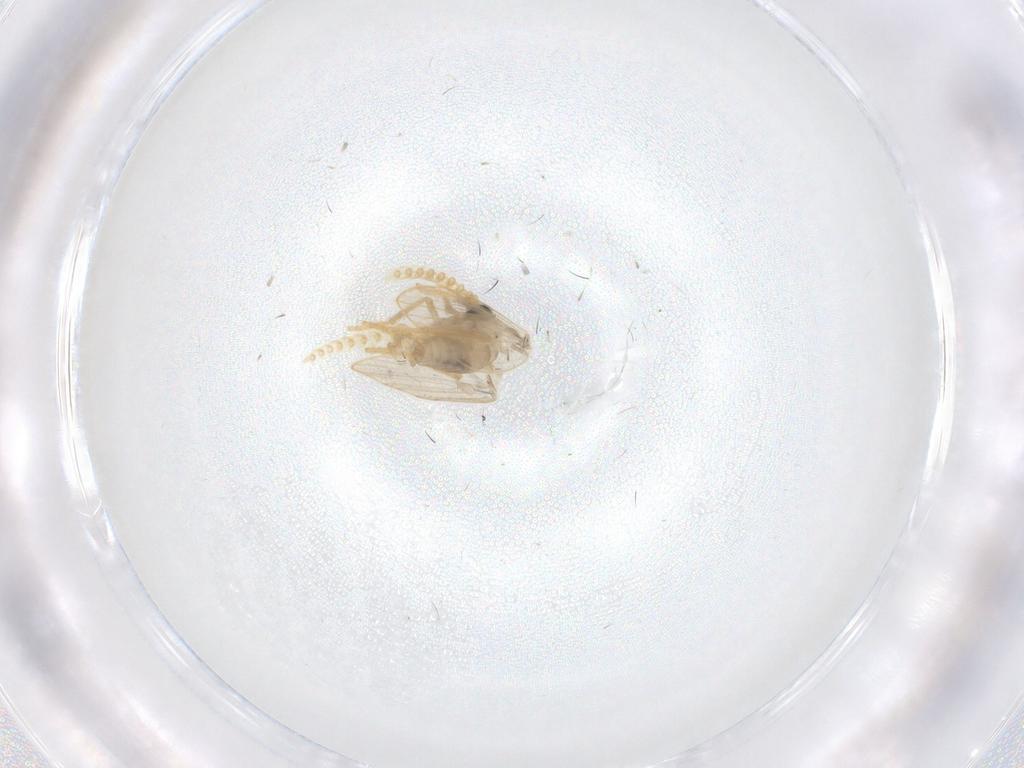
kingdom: Animalia
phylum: Arthropoda
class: Insecta
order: Diptera
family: Psychodidae
